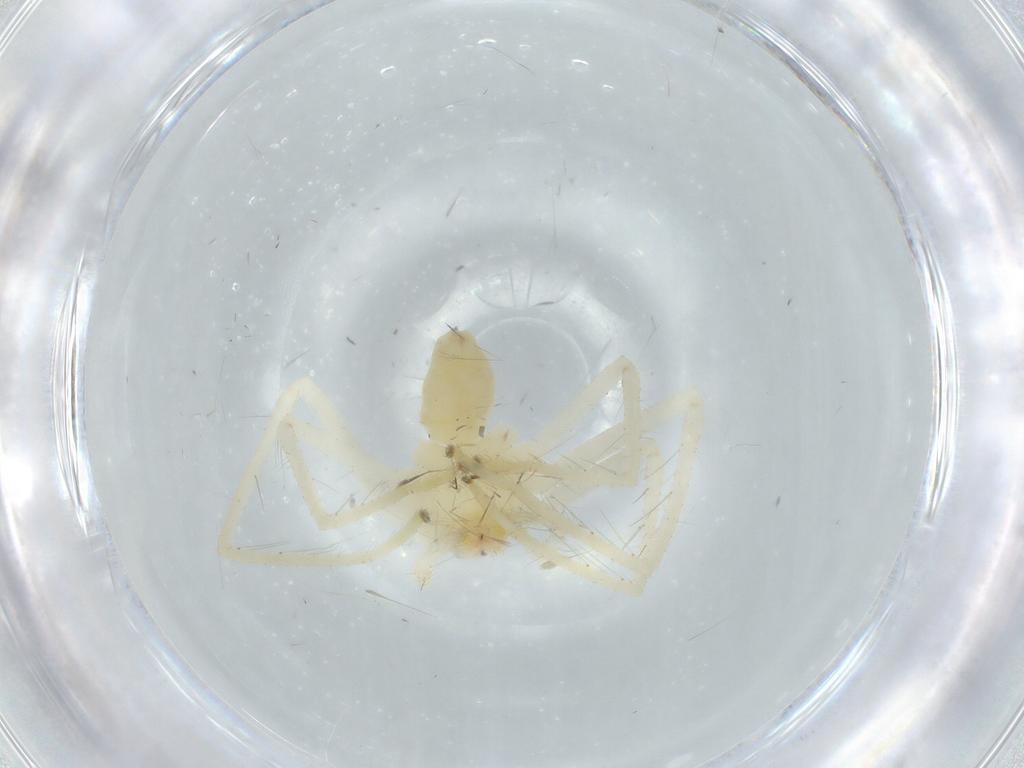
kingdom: Animalia
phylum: Arthropoda
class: Arachnida
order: Araneae
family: Sparassidae
